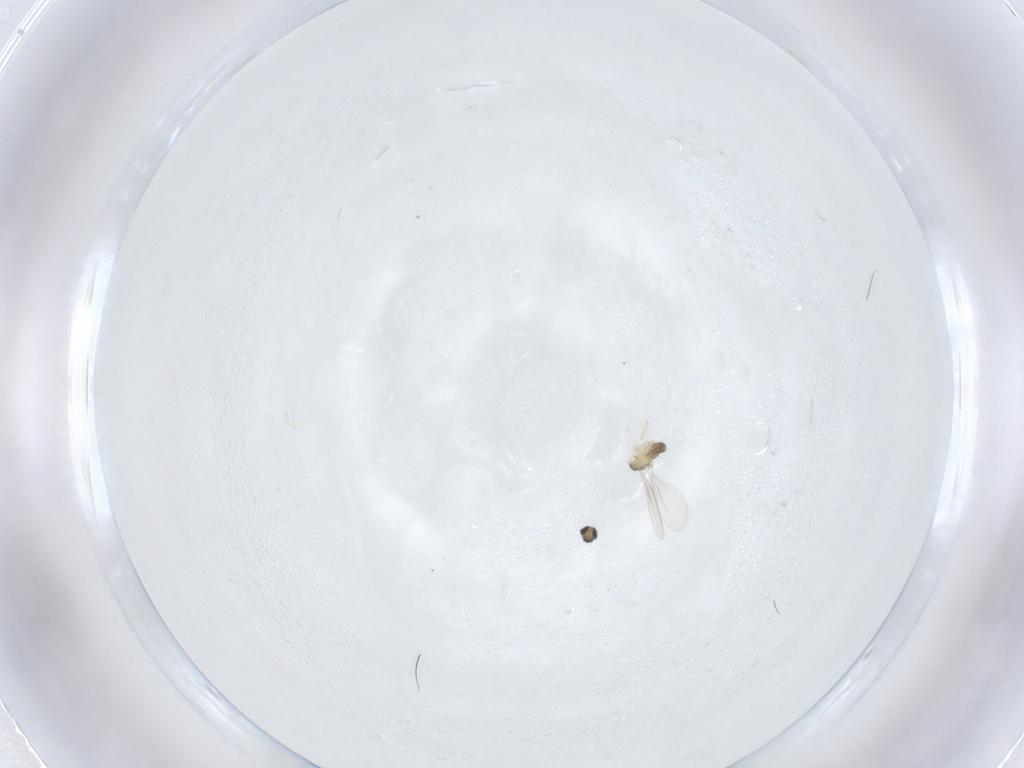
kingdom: Animalia
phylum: Arthropoda
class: Insecta
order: Diptera
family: Cecidomyiidae
